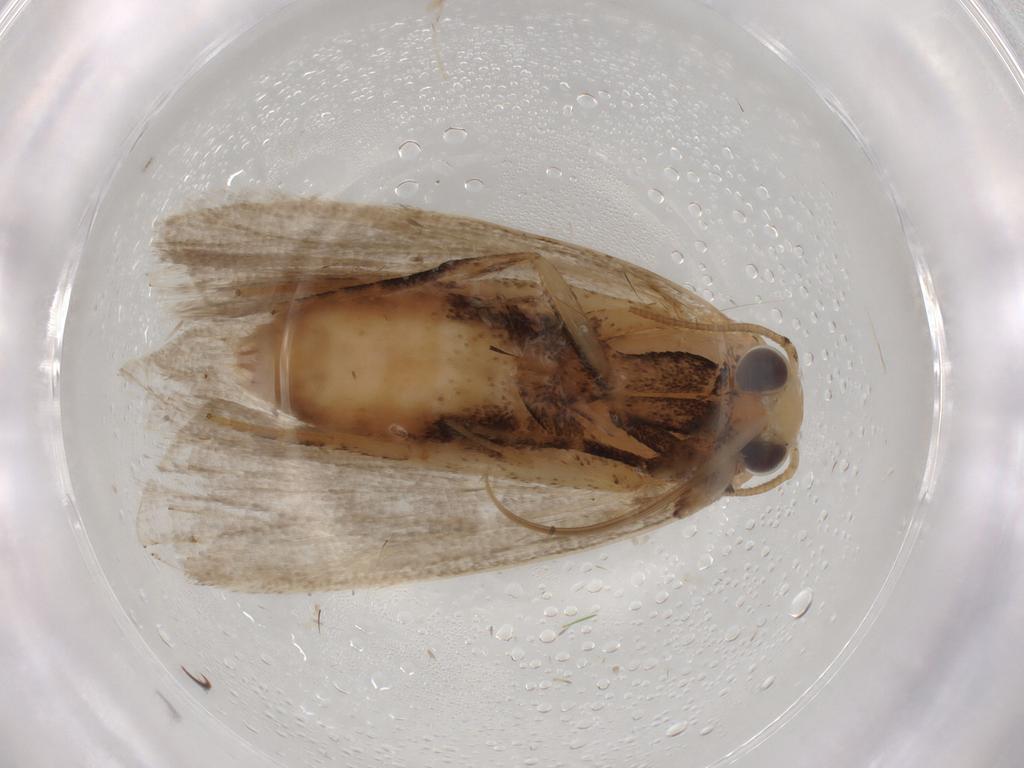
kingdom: Animalia
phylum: Arthropoda
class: Insecta
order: Lepidoptera
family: Nolidae
